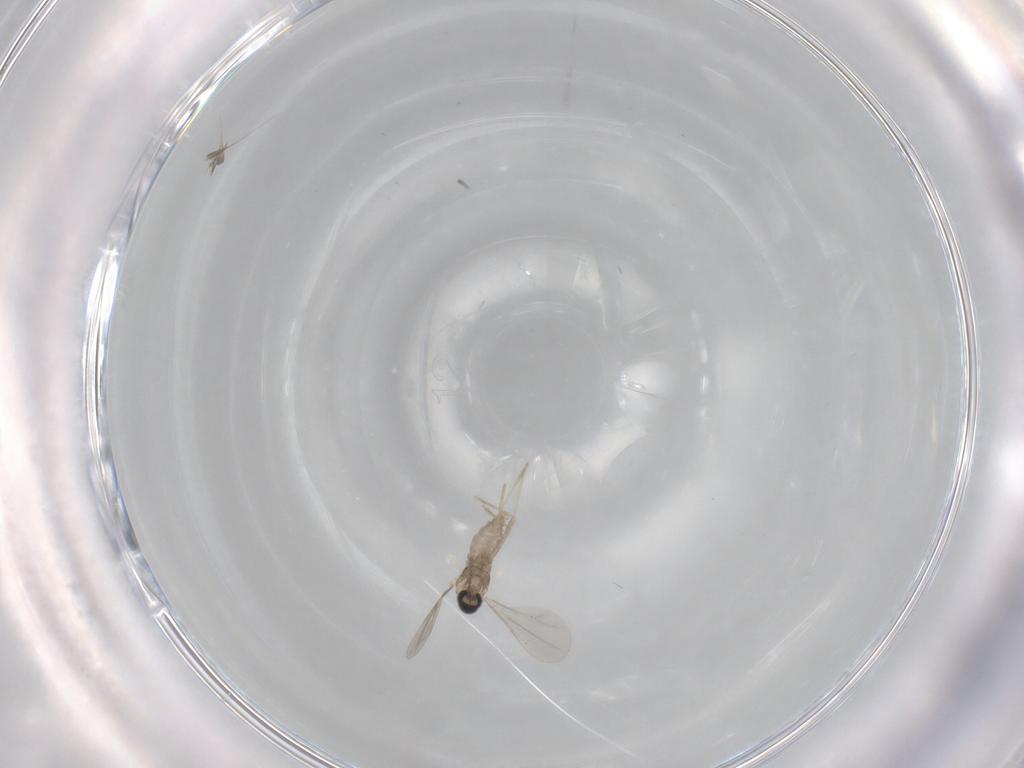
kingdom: Animalia
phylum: Arthropoda
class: Insecta
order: Diptera
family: Cecidomyiidae
